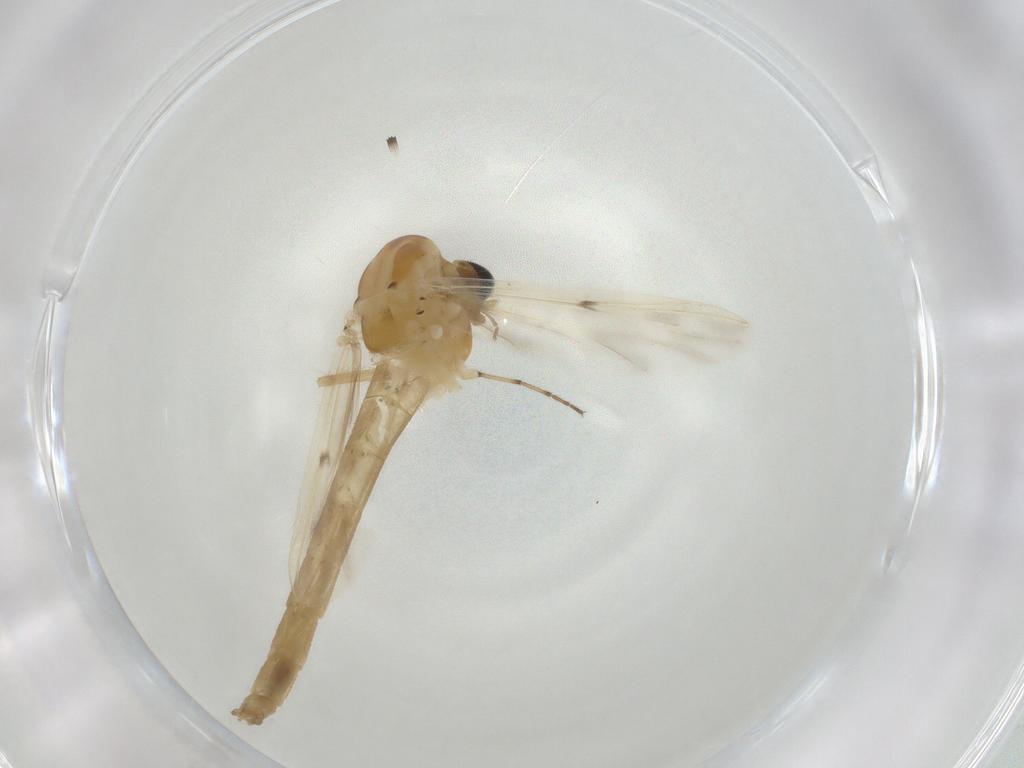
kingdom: Animalia
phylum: Arthropoda
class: Insecta
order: Diptera
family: Chironomidae
